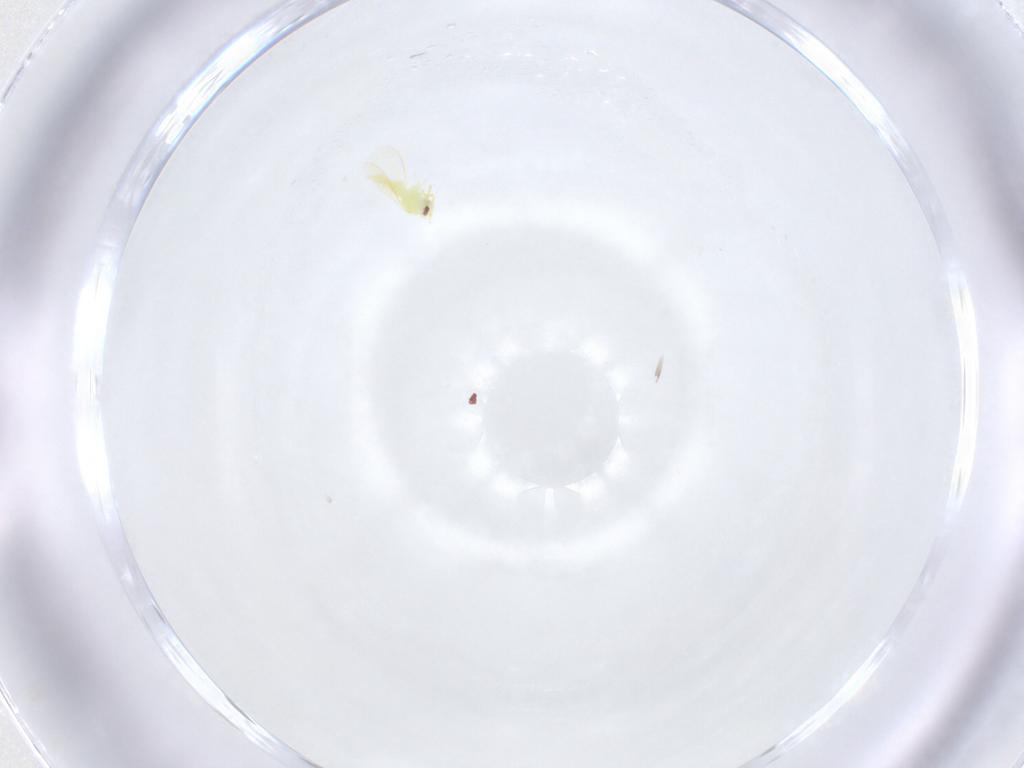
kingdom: Animalia
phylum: Arthropoda
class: Insecta
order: Hemiptera
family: Aleyrodidae
